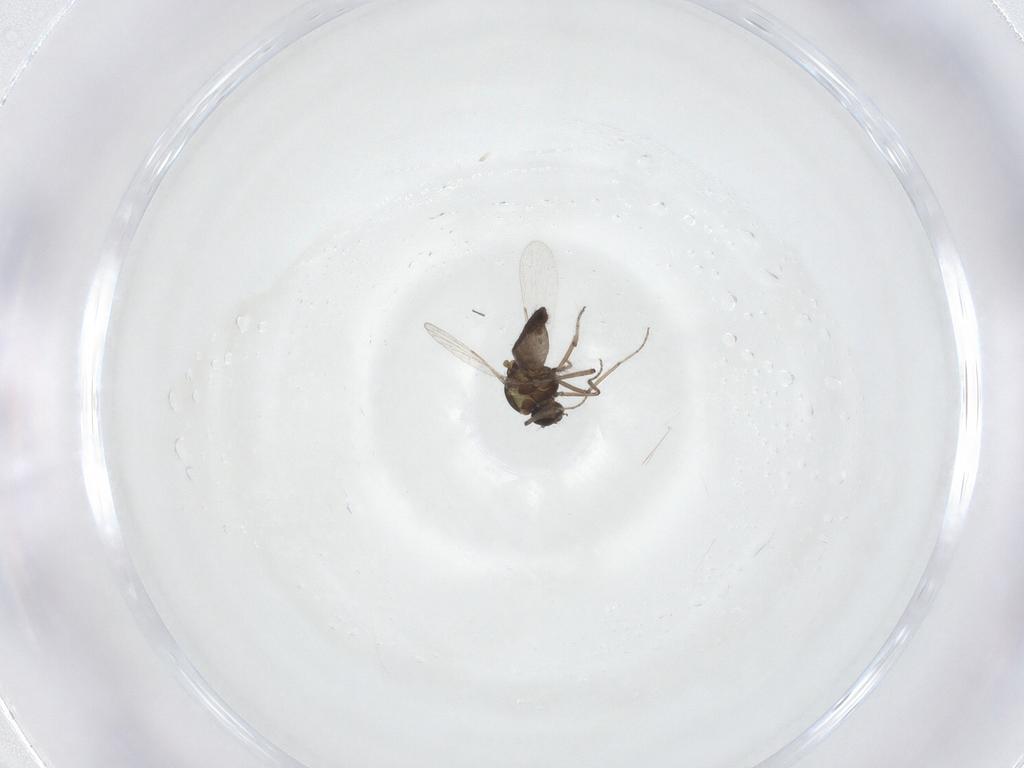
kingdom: Animalia
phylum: Arthropoda
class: Insecta
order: Diptera
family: Ceratopogonidae
